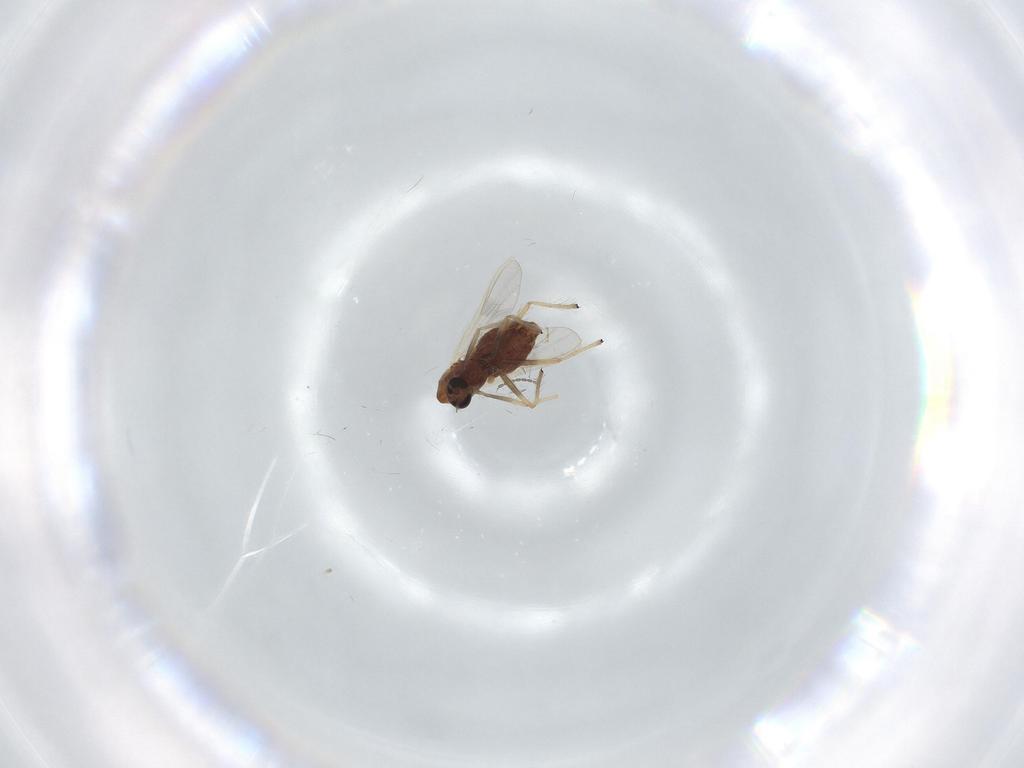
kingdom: Animalia
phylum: Arthropoda
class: Insecta
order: Diptera
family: Chironomidae
